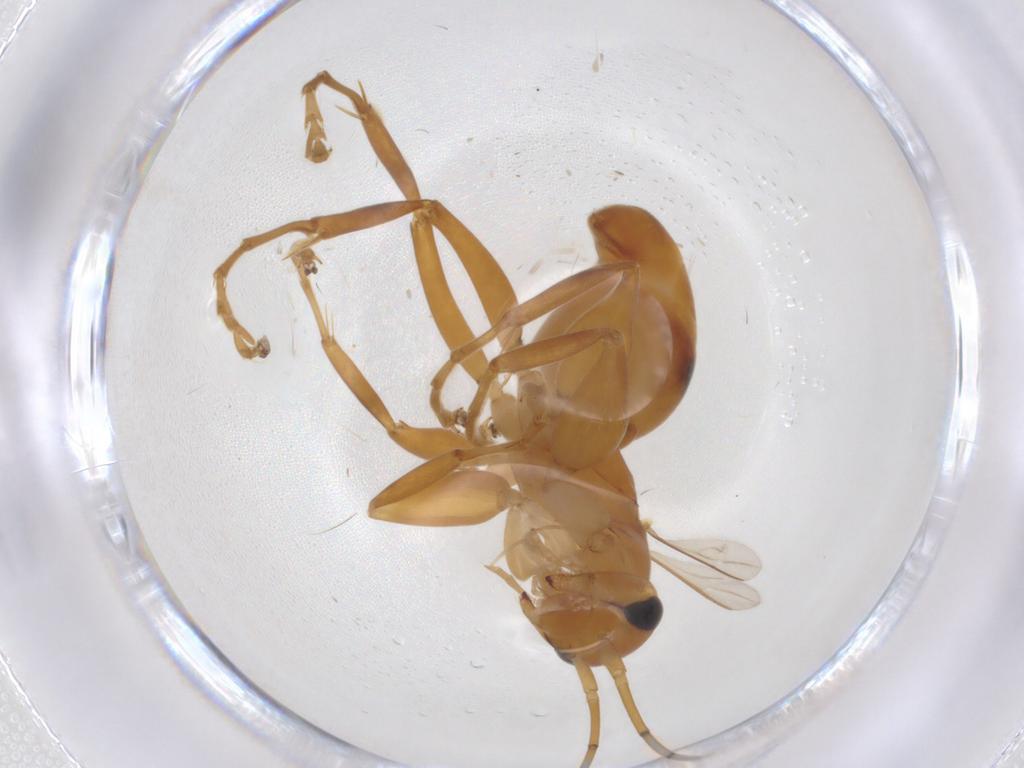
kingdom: Animalia
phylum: Arthropoda
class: Insecta
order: Hymenoptera
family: Rhopalosomatidae
